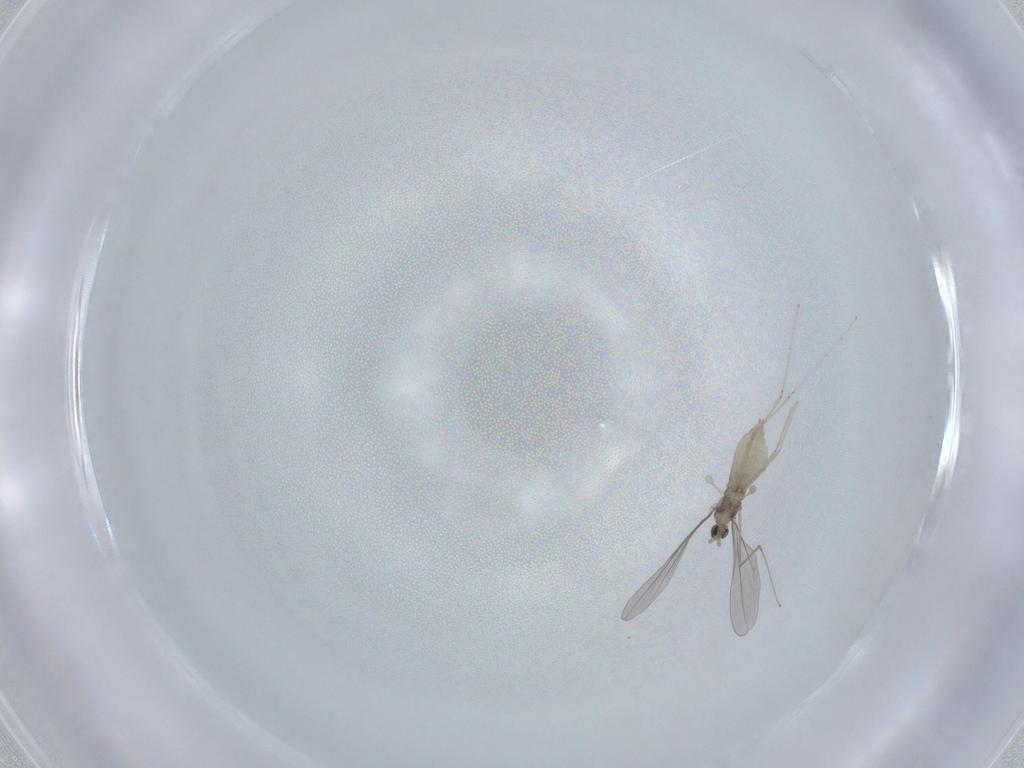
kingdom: Animalia
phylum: Arthropoda
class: Insecta
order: Diptera
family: Cecidomyiidae
